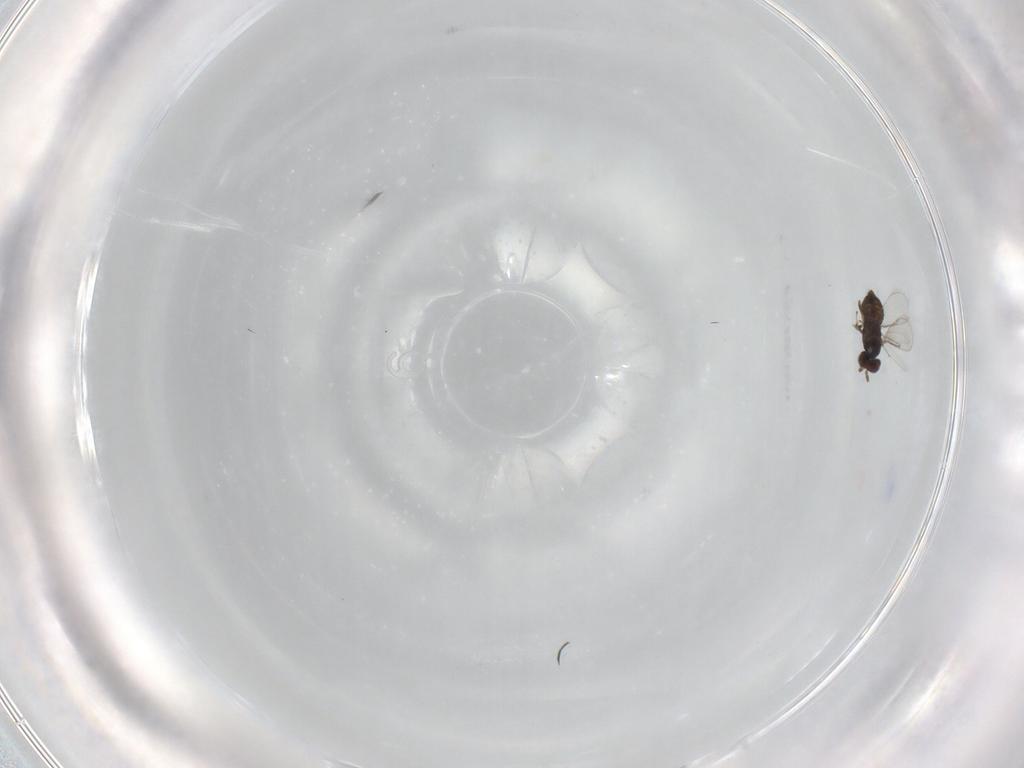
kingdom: Animalia
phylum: Arthropoda
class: Insecta
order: Hymenoptera
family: Aphelinidae
